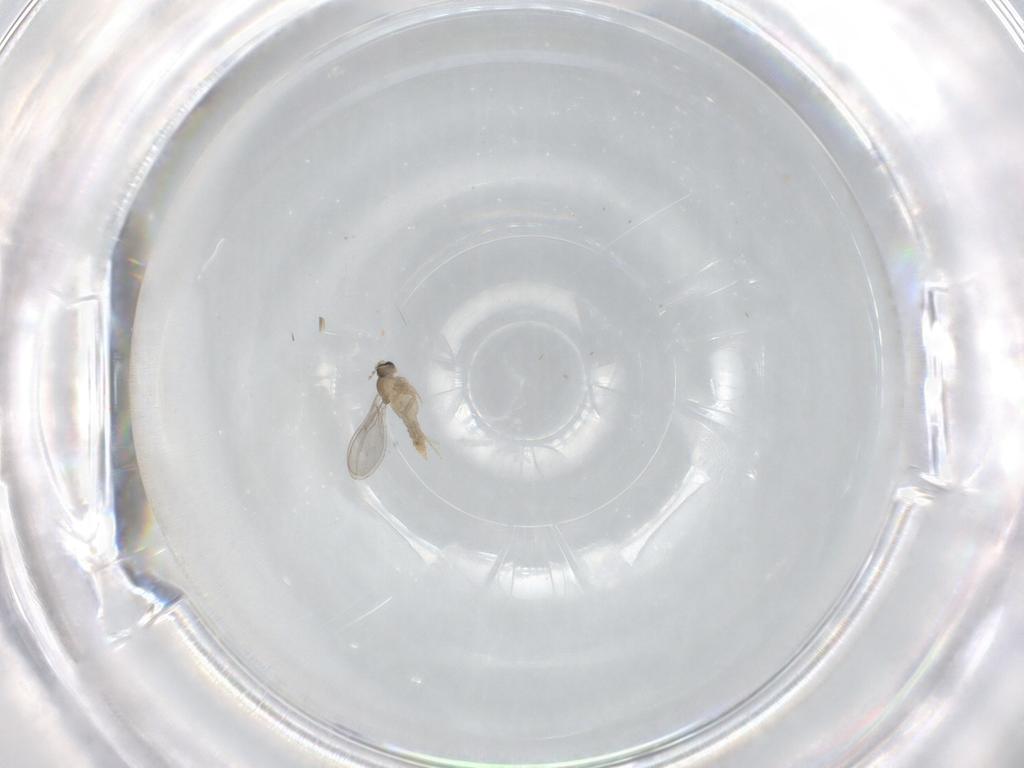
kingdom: Animalia
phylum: Arthropoda
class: Insecta
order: Diptera
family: Cecidomyiidae
